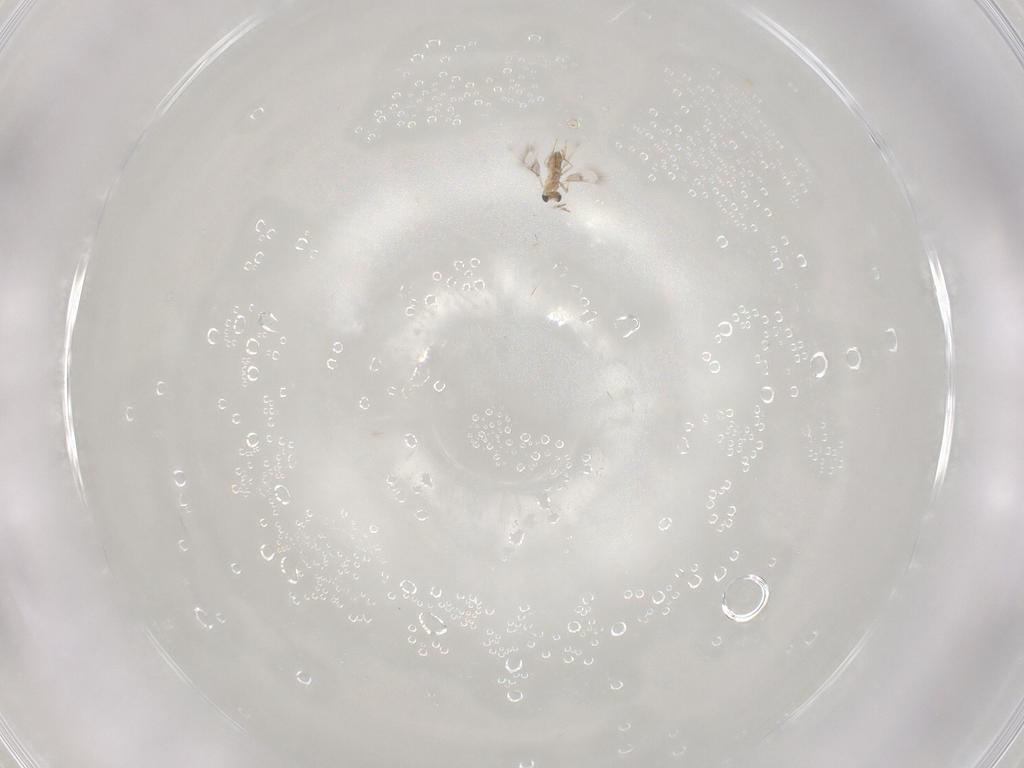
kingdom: Animalia
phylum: Arthropoda
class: Insecta
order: Hymenoptera
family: Trichogrammatidae
